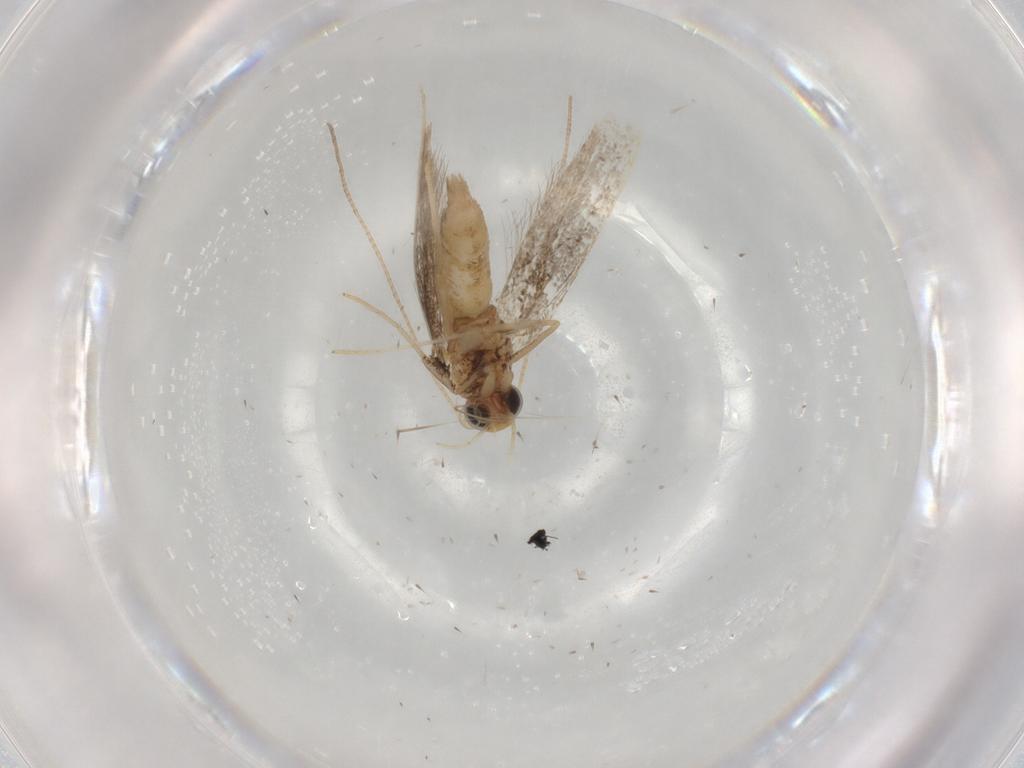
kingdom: Animalia
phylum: Arthropoda
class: Insecta
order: Lepidoptera
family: Gracillariidae
